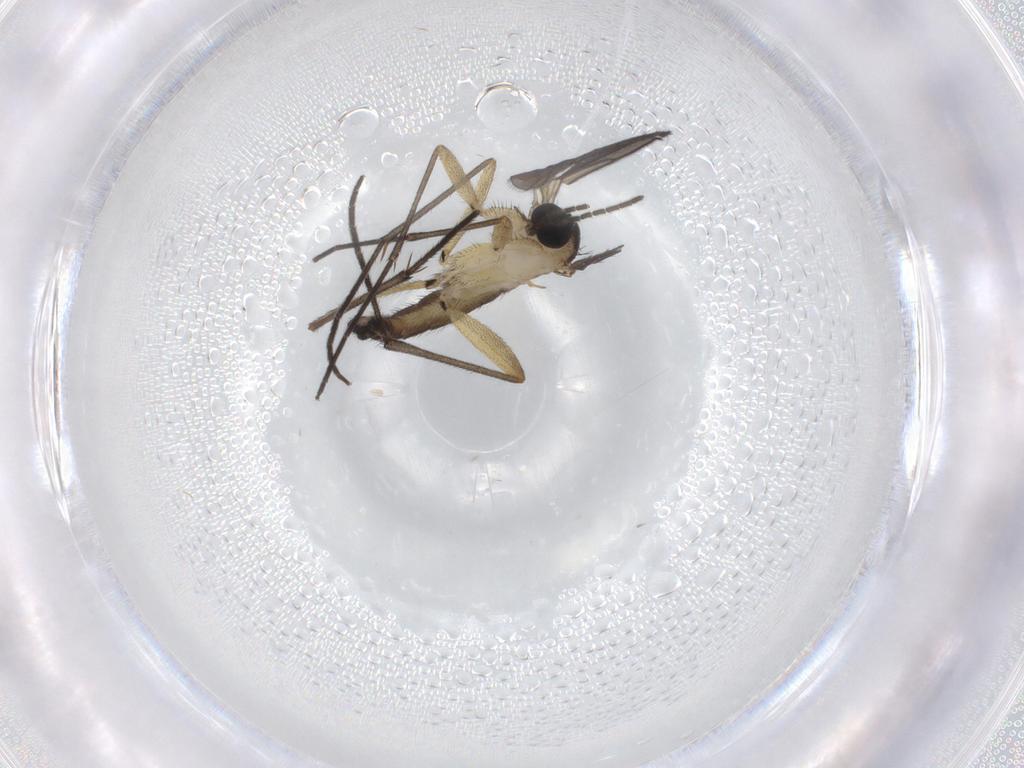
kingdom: Animalia
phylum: Arthropoda
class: Insecta
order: Diptera
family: Sciaridae
